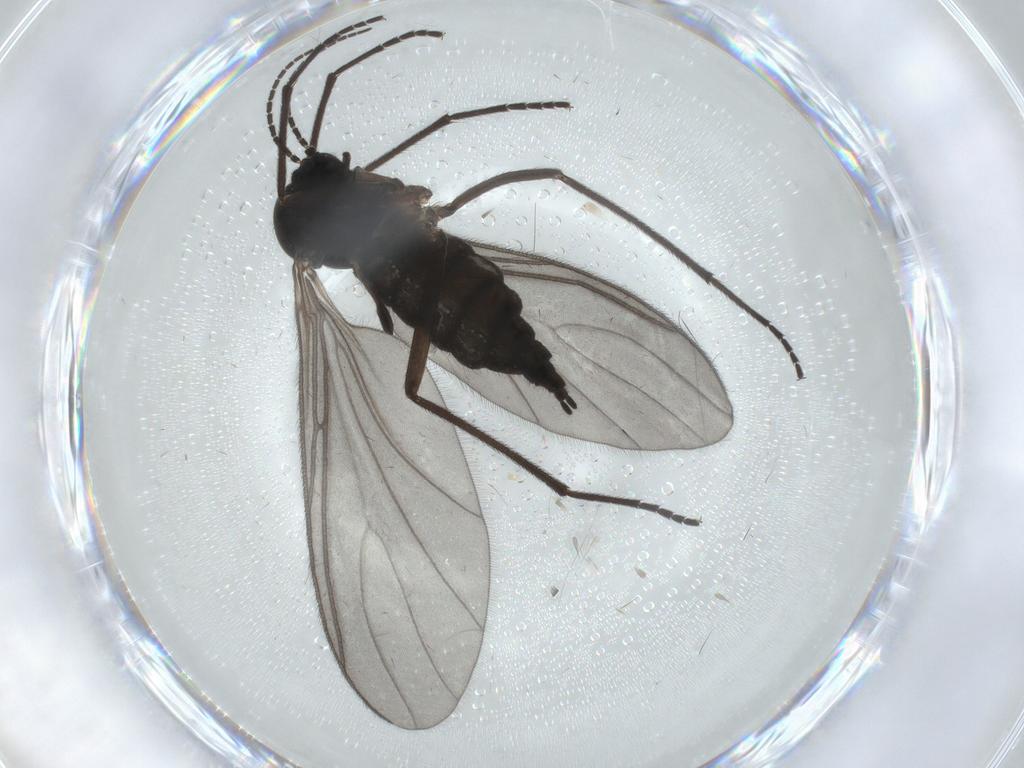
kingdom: Animalia
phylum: Arthropoda
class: Insecta
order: Diptera
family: Sciaridae
